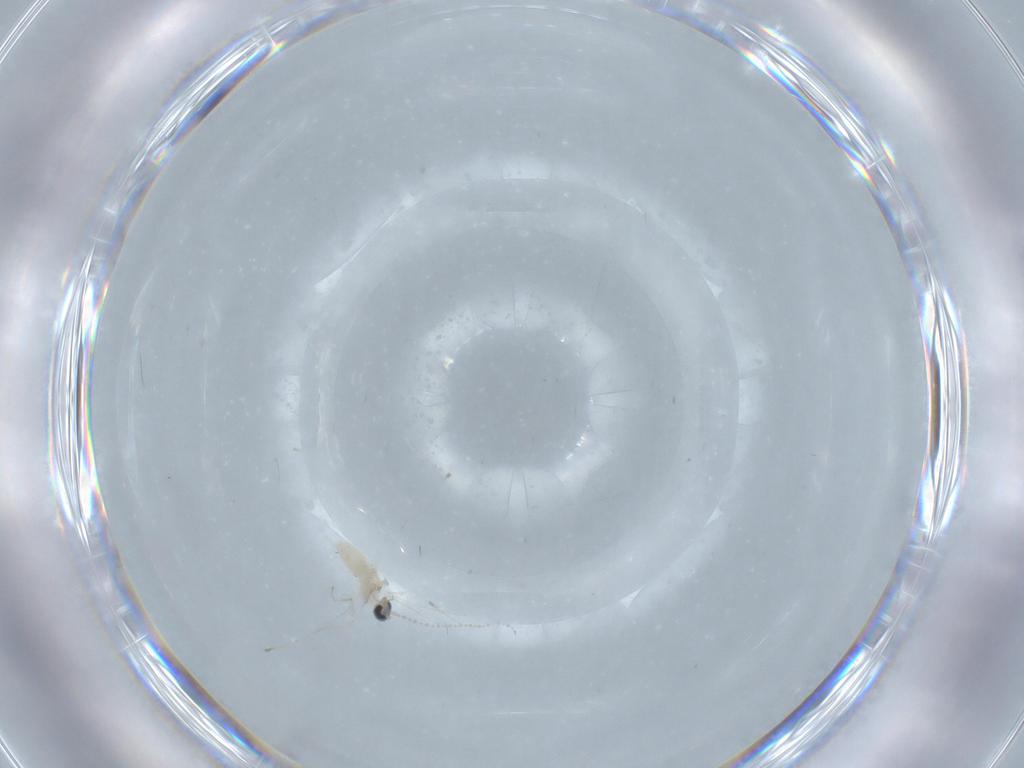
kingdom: Animalia
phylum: Arthropoda
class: Insecta
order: Diptera
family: Cecidomyiidae
